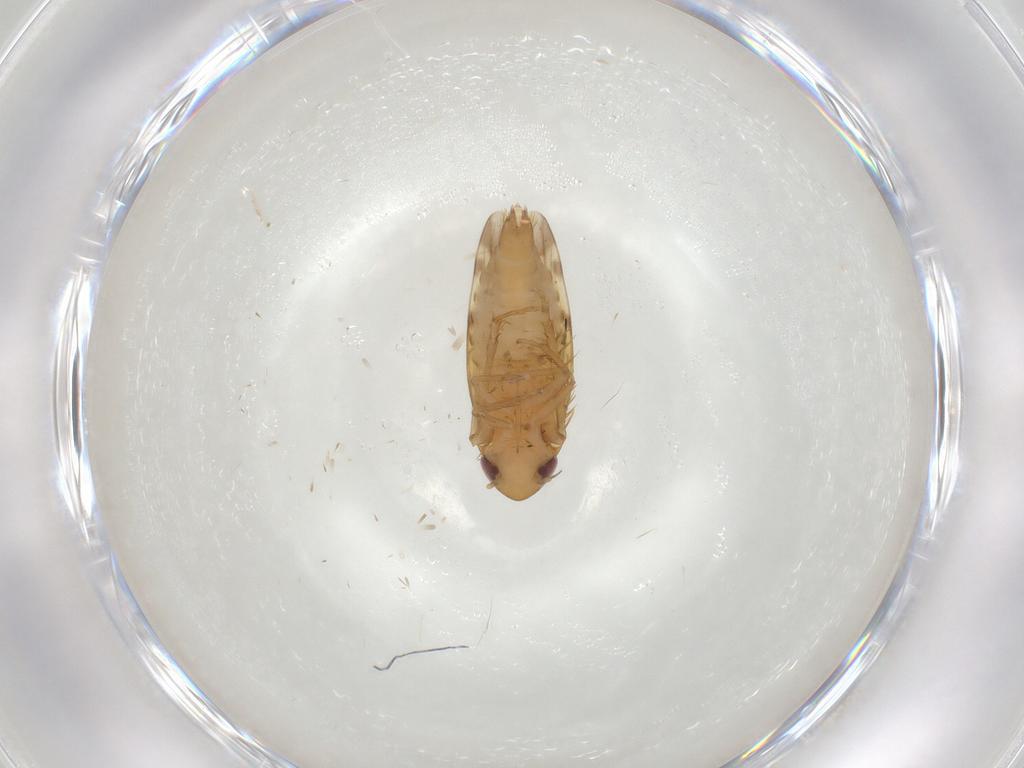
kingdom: Animalia
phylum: Arthropoda
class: Insecta
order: Hemiptera
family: Cicadellidae
